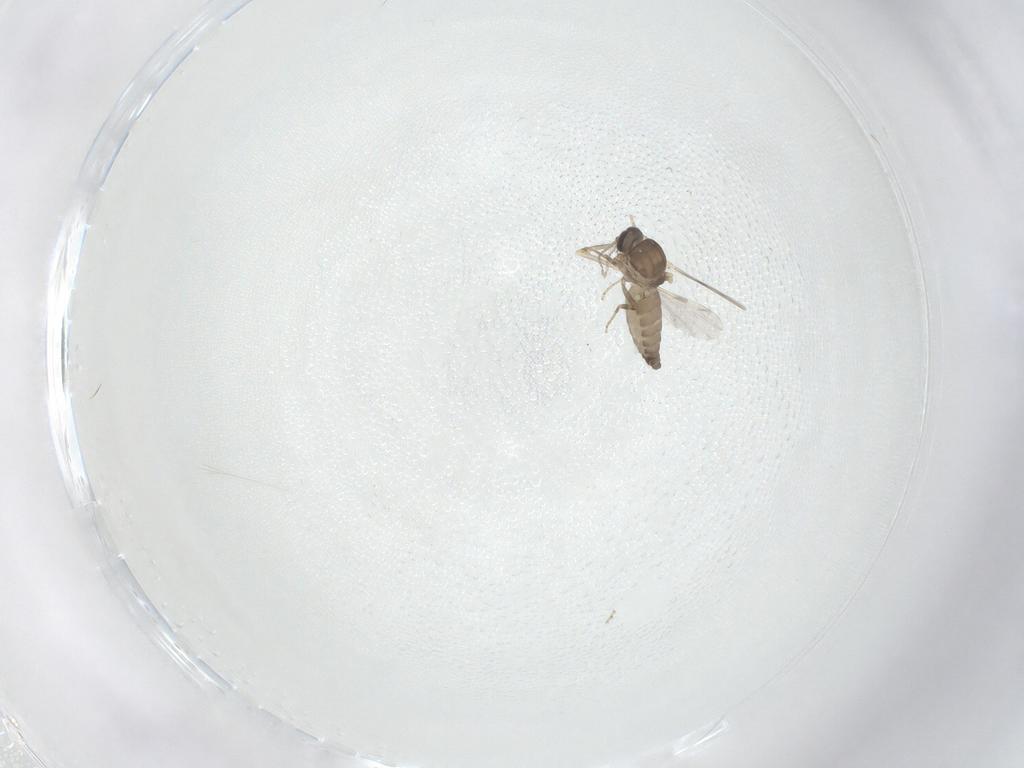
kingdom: Animalia
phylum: Arthropoda
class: Insecta
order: Diptera
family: Ceratopogonidae
